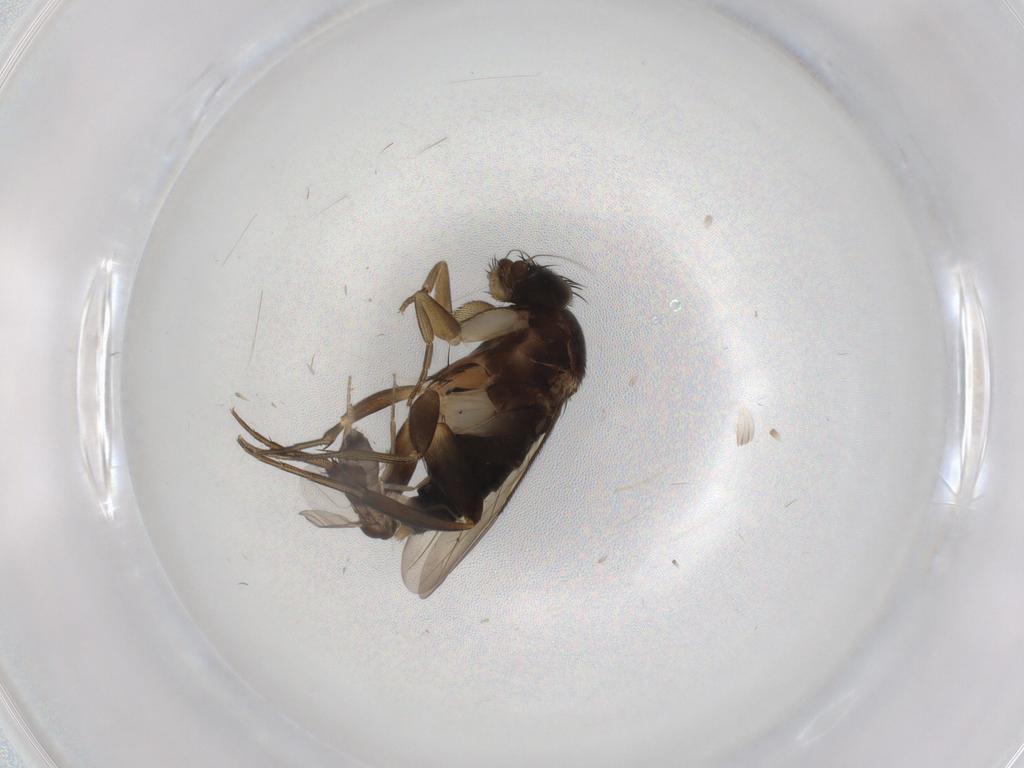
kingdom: Animalia
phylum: Arthropoda
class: Insecta
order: Diptera
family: Phoridae
